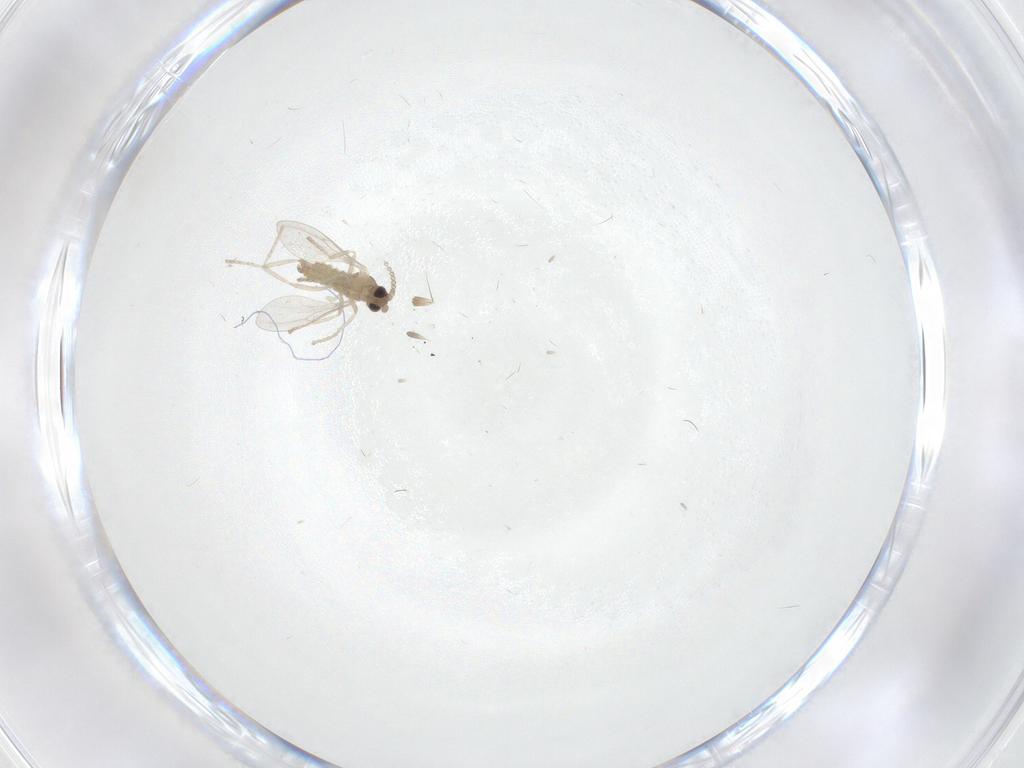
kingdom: Animalia
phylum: Arthropoda
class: Insecta
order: Diptera
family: Cecidomyiidae
